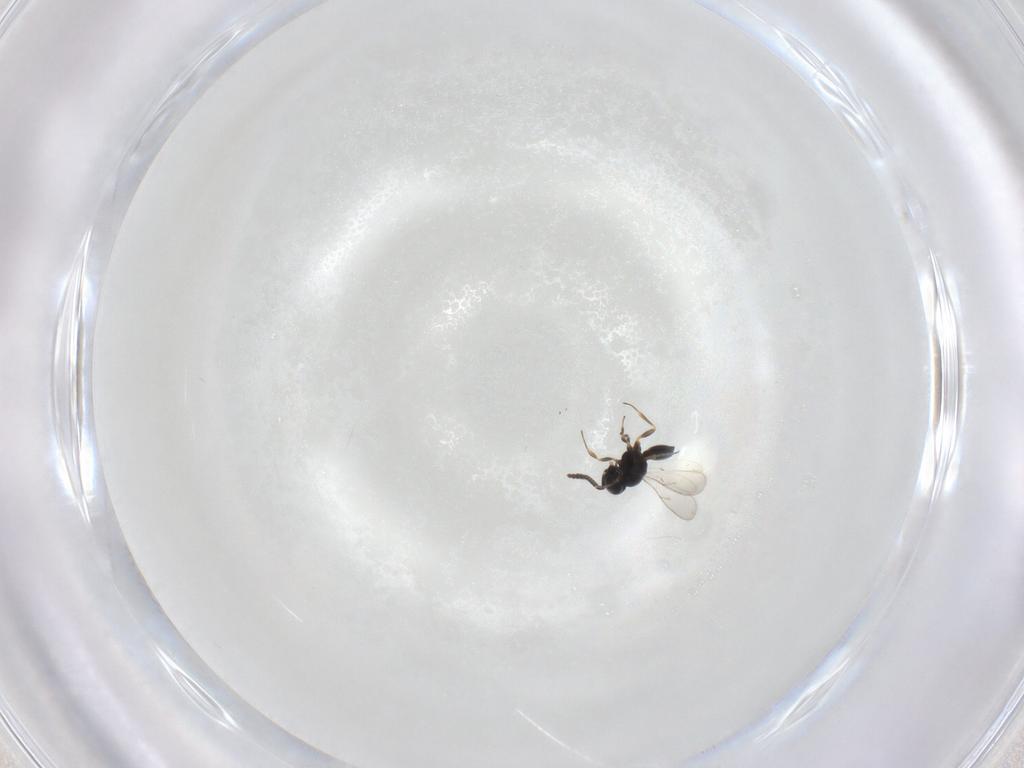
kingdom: Animalia
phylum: Arthropoda
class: Insecta
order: Hymenoptera
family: Scelionidae
